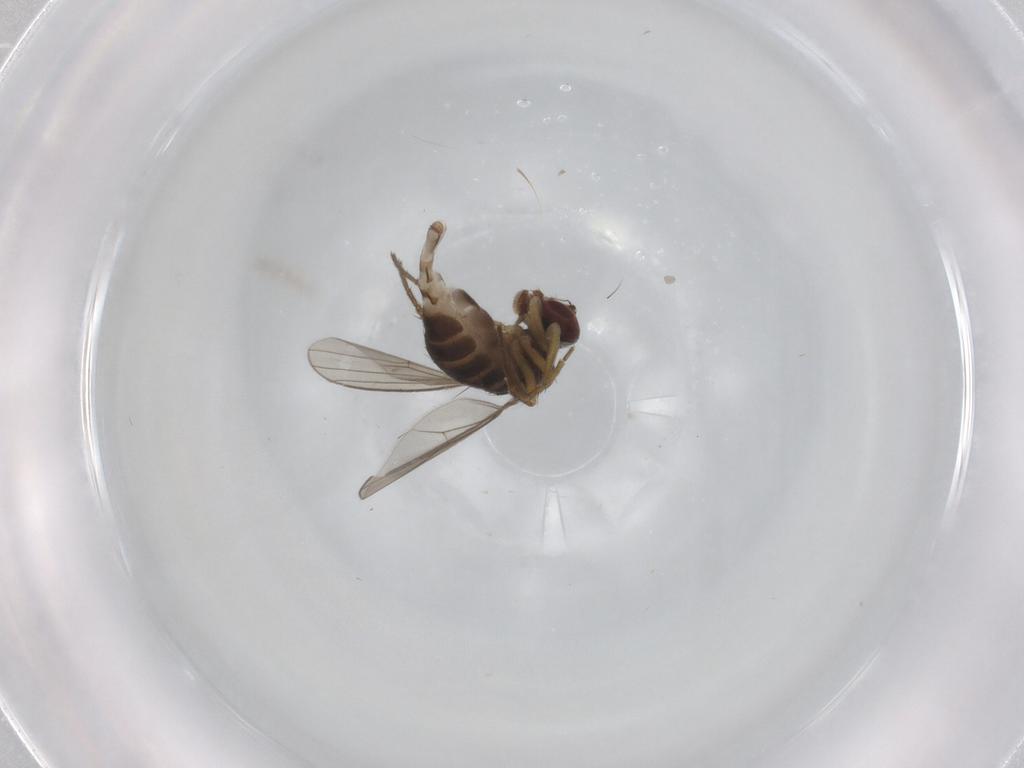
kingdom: Animalia
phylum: Arthropoda
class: Insecta
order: Diptera
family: Dolichopodidae
